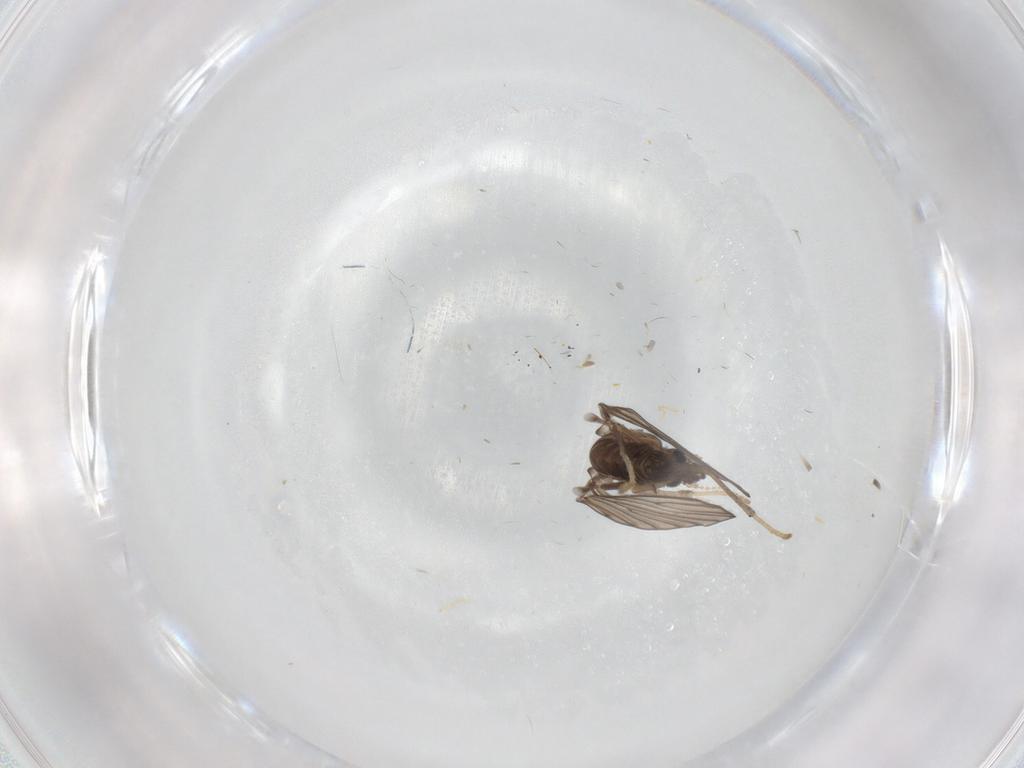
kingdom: Animalia
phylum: Arthropoda
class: Insecta
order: Diptera
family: Psychodidae
